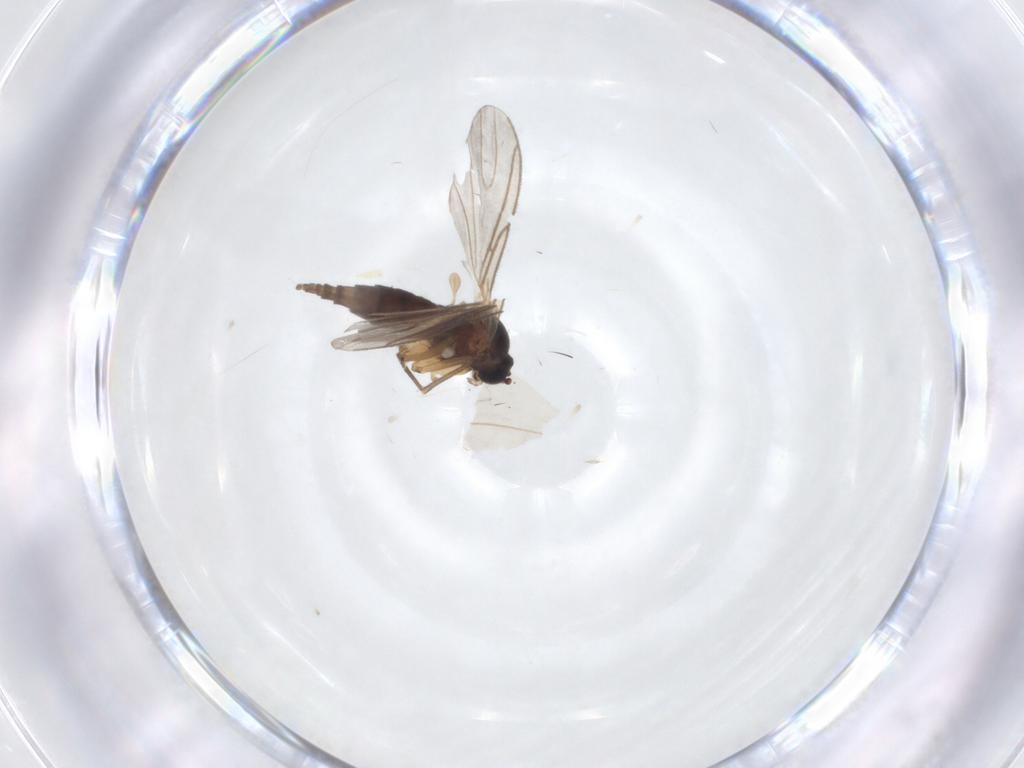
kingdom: Animalia
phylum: Arthropoda
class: Insecta
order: Diptera
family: Sciaridae
